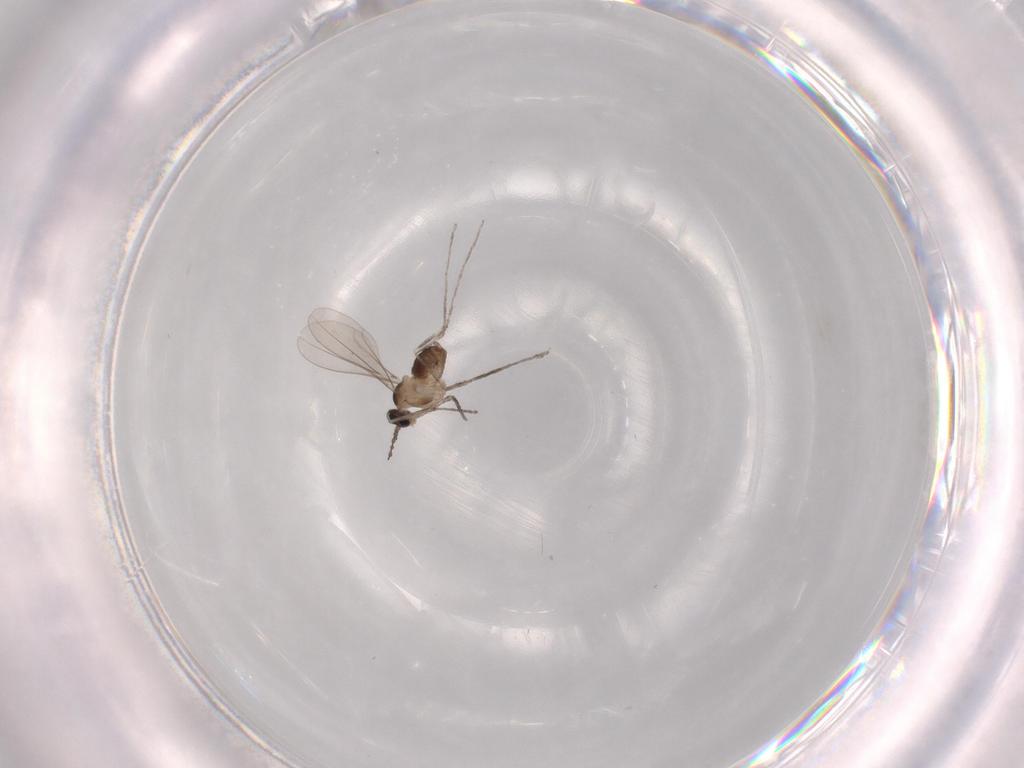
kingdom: Animalia
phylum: Arthropoda
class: Insecta
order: Diptera
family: Cecidomyiidae
